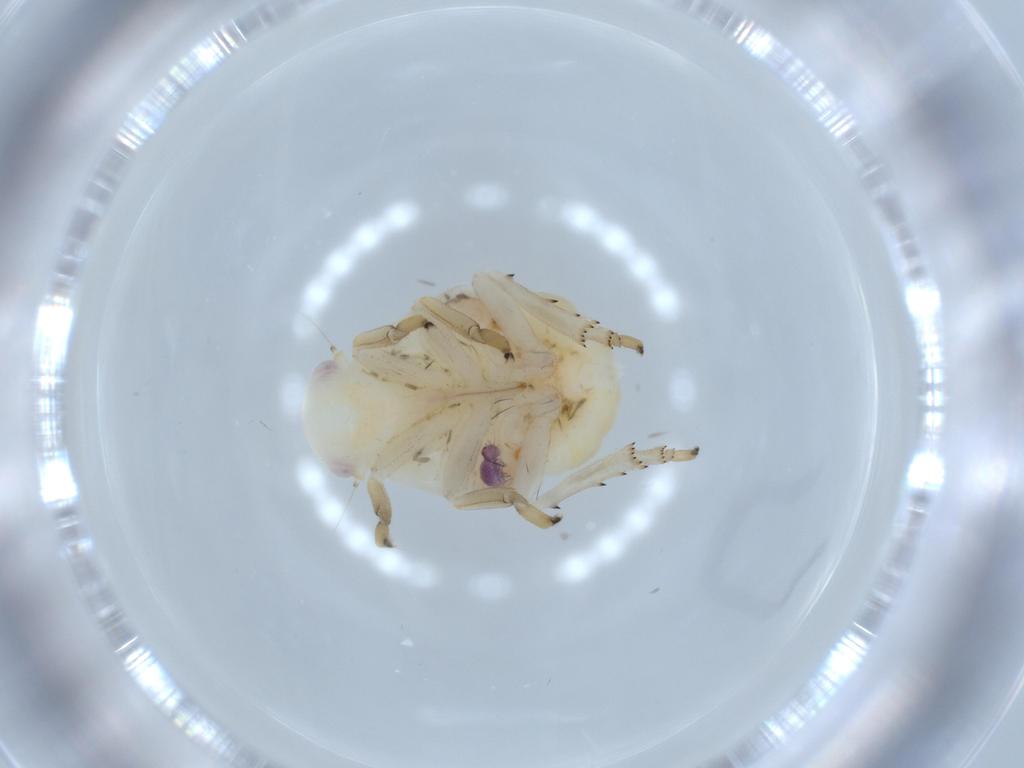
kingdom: Animalia
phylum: Arthropoda
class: Insecta
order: Hemiptera
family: Flatidae
